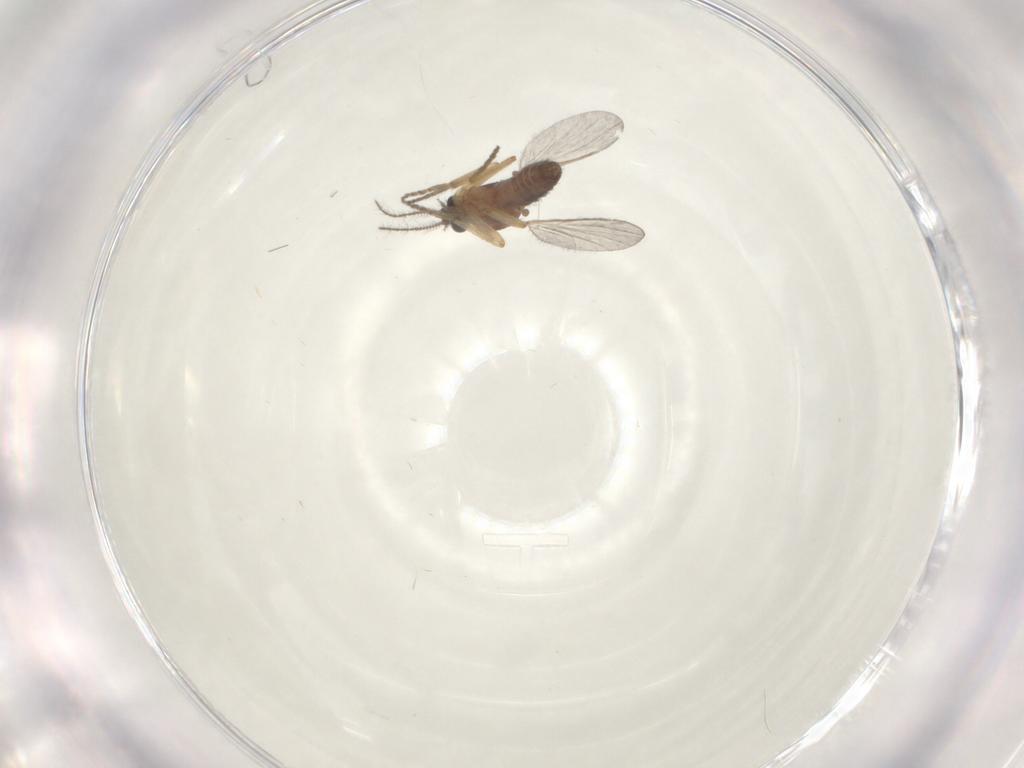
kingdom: Animalia
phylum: Arthropoda
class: Insecta
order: Diptera
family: Ceratopogonidae
